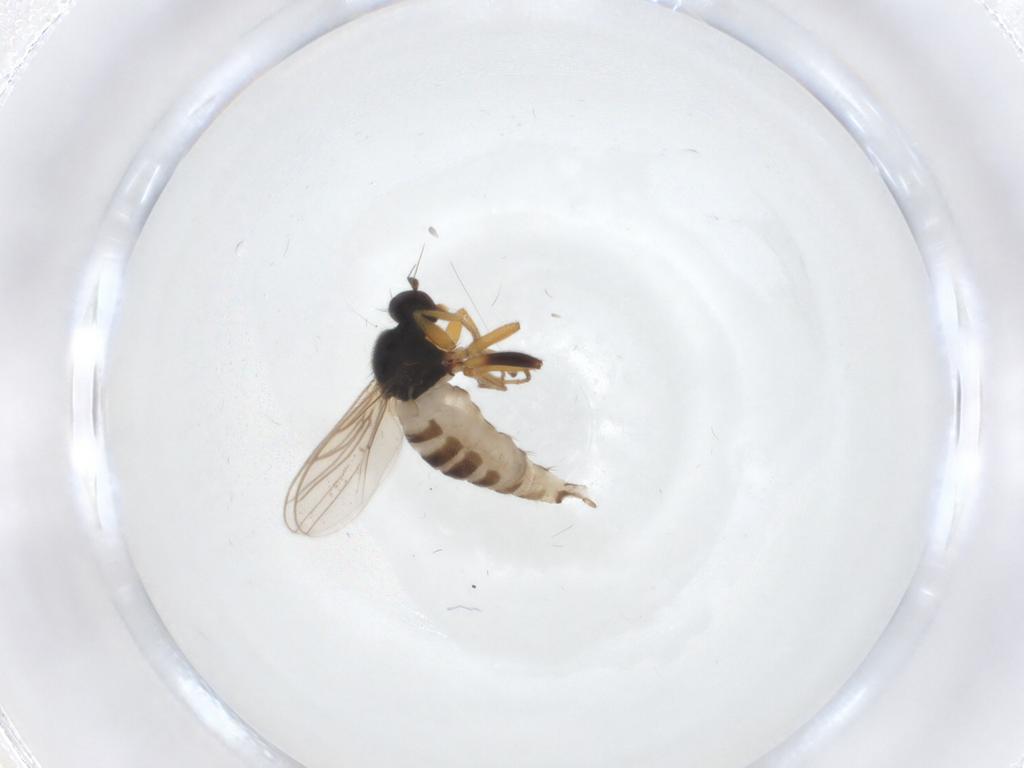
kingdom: Animalia
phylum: Arthropoda
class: Insecta
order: Diptera
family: Hybotidae
